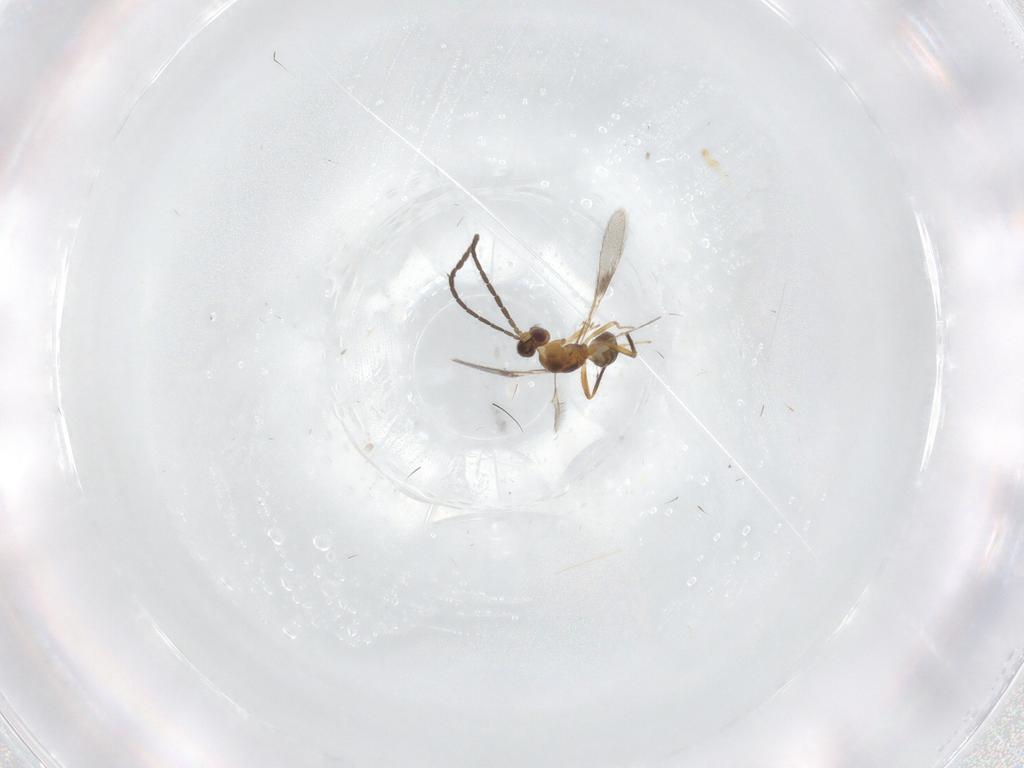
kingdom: Animalia
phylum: Arthropoda
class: Insecta
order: Hymenoptera
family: Mymaridae
